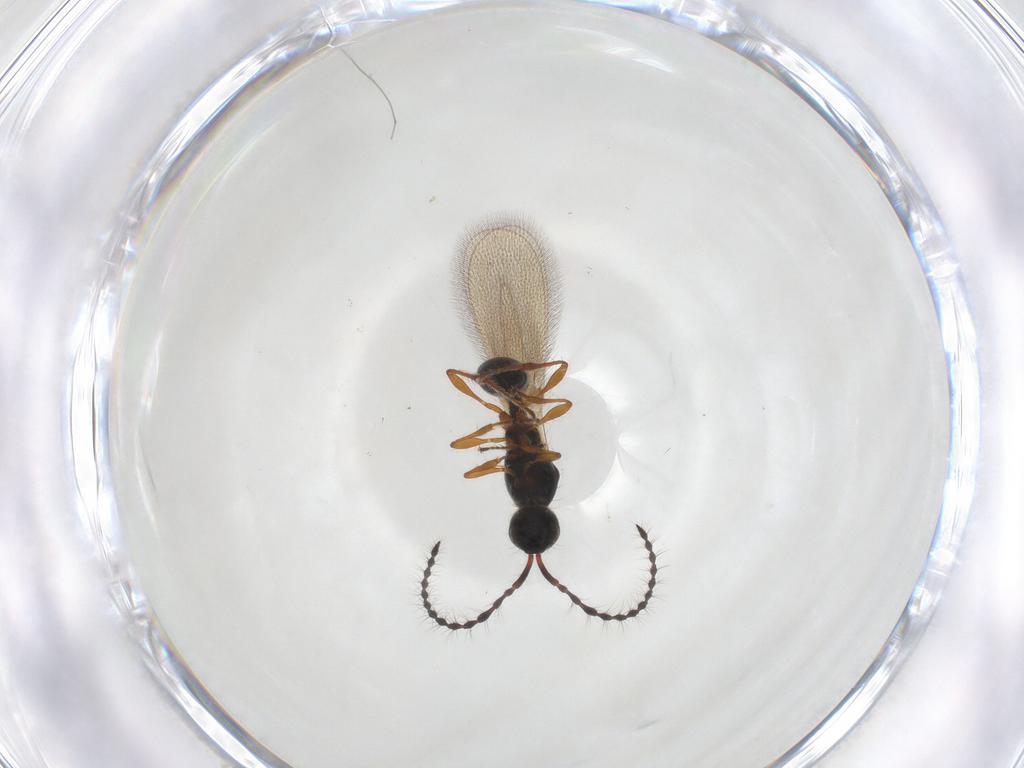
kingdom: Animalia
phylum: Arthropoda
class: Insecta
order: Hymenoptera
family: Diapriidae
